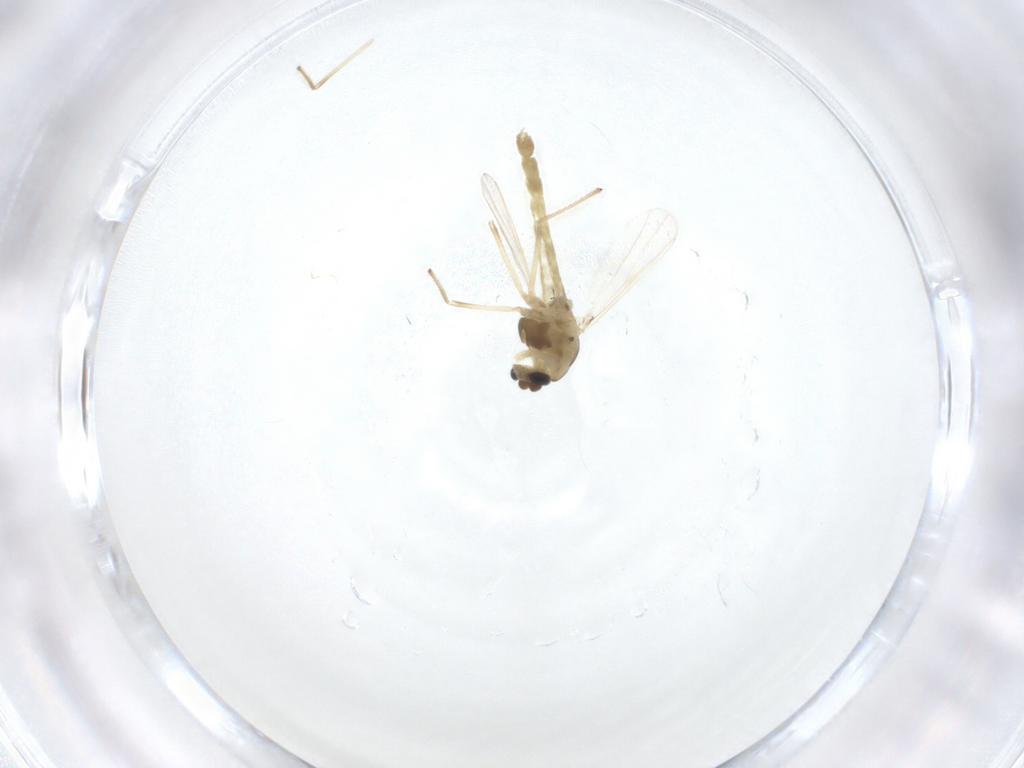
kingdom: Animalia
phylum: Arthropoda
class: Insecta
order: Diptera
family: Chironomidae
